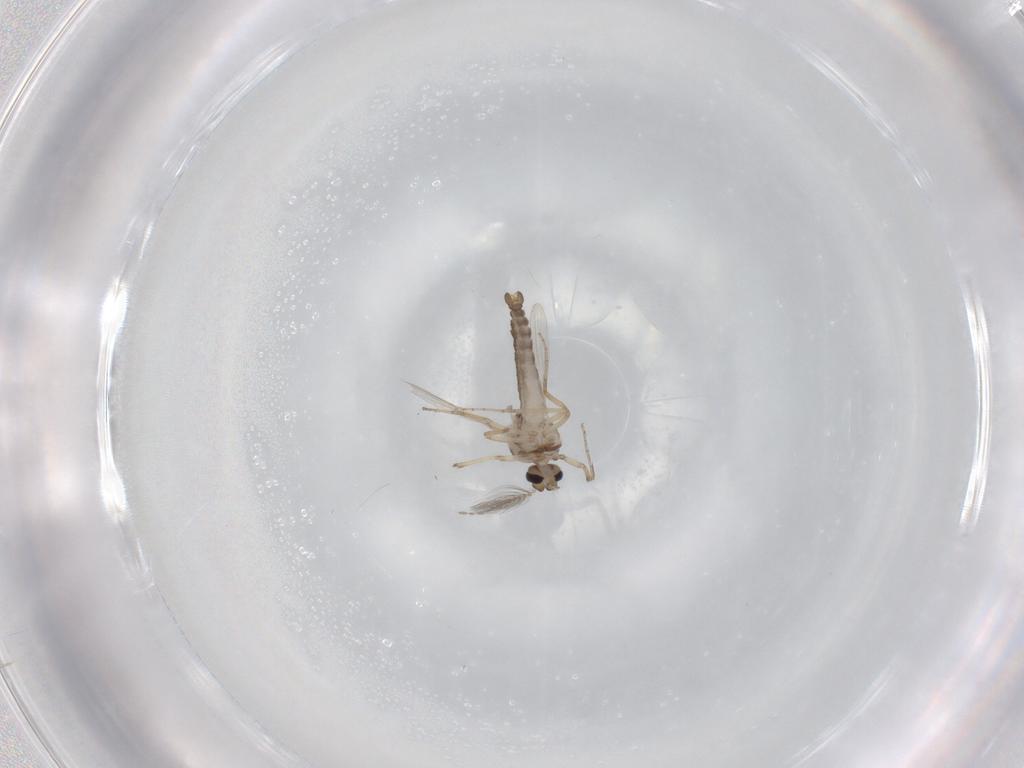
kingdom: Animalia
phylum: Arthropoda
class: Insecta
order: Diptera
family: Ceratopogonidae
